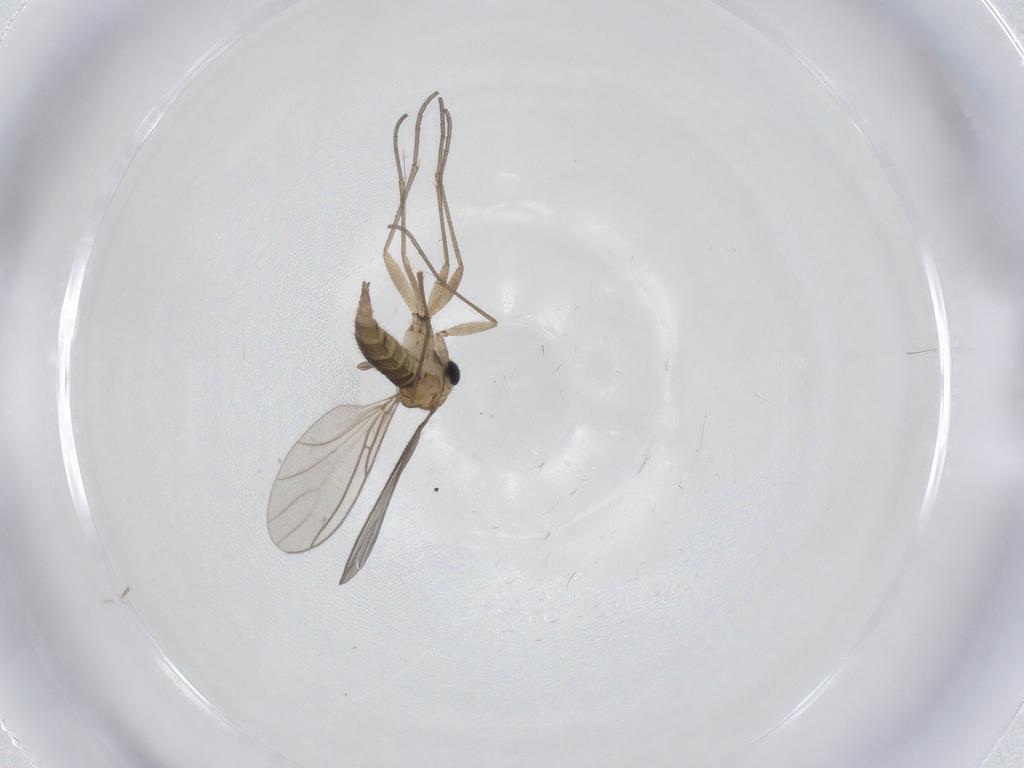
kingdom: Animalia
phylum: Arthropoda
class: Insecta
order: Diptera
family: Sciaridae
